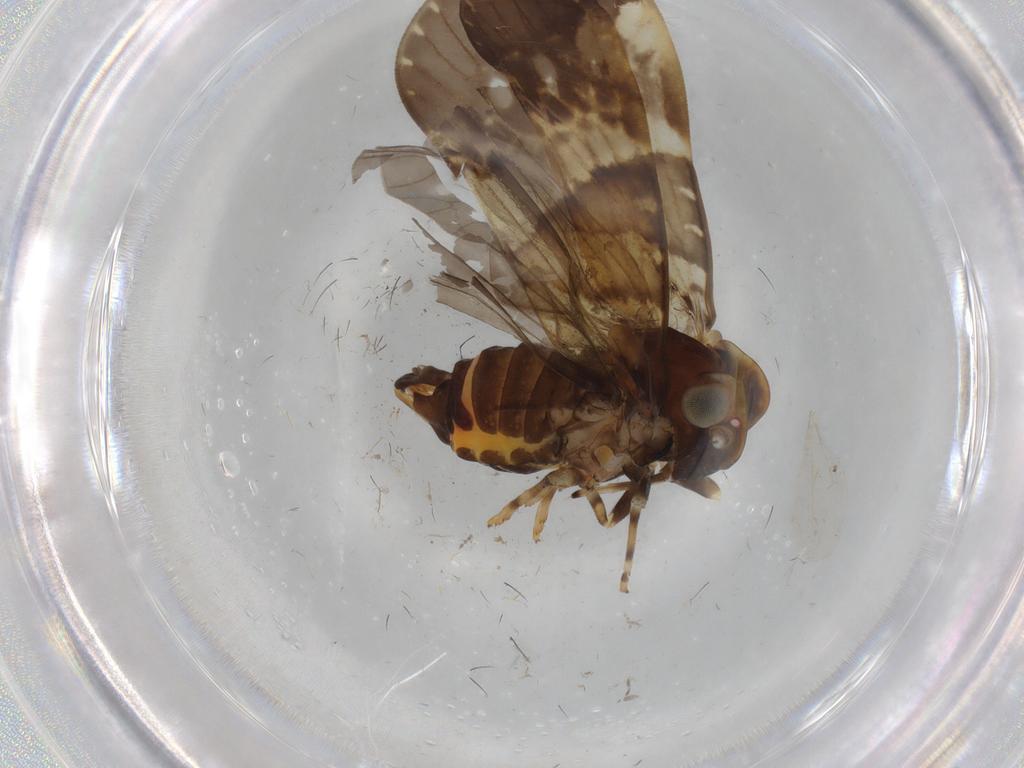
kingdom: Animalia
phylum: Arthropoda
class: Insecta
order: Hemiptera
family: Cixiidae
